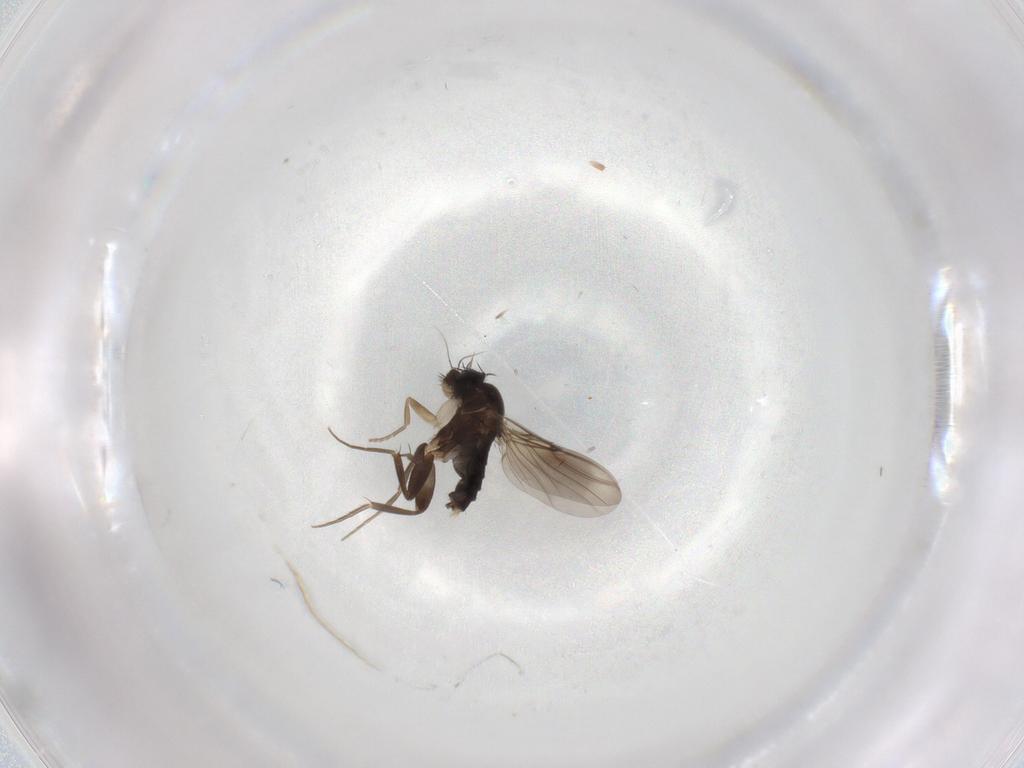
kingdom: Animalia
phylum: Arthropoda
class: Insecta
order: Diptera
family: Phoridae
